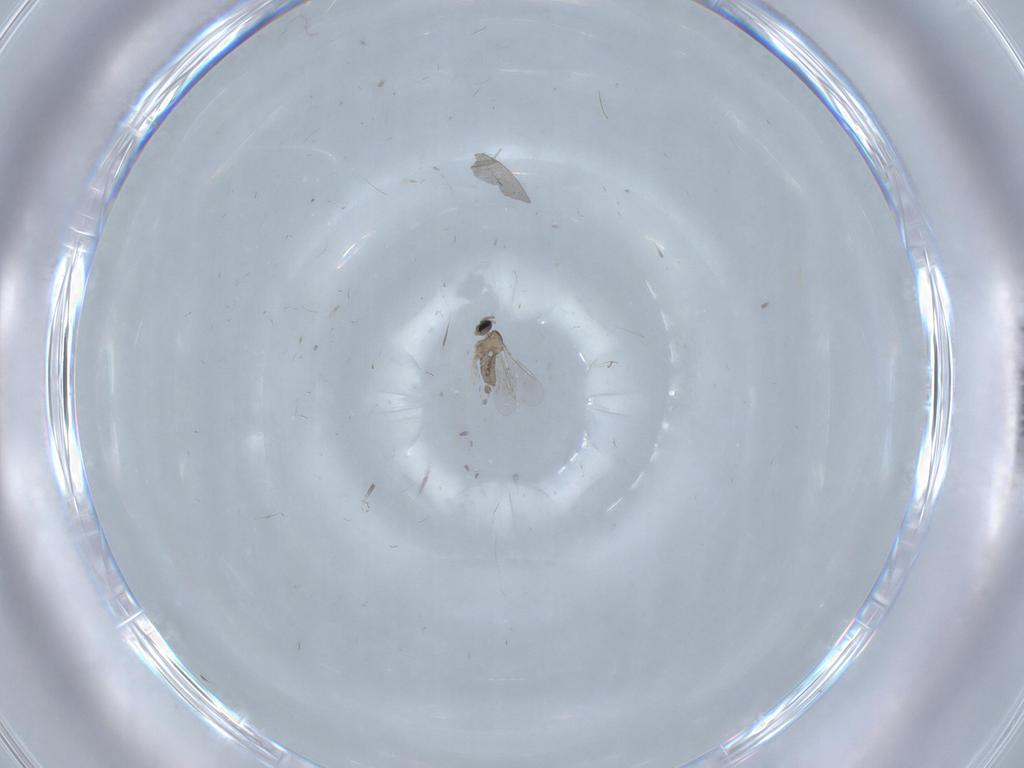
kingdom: Animalia
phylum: Arthropoda
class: Insecta
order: Diptera
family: Cecidomyiidae
